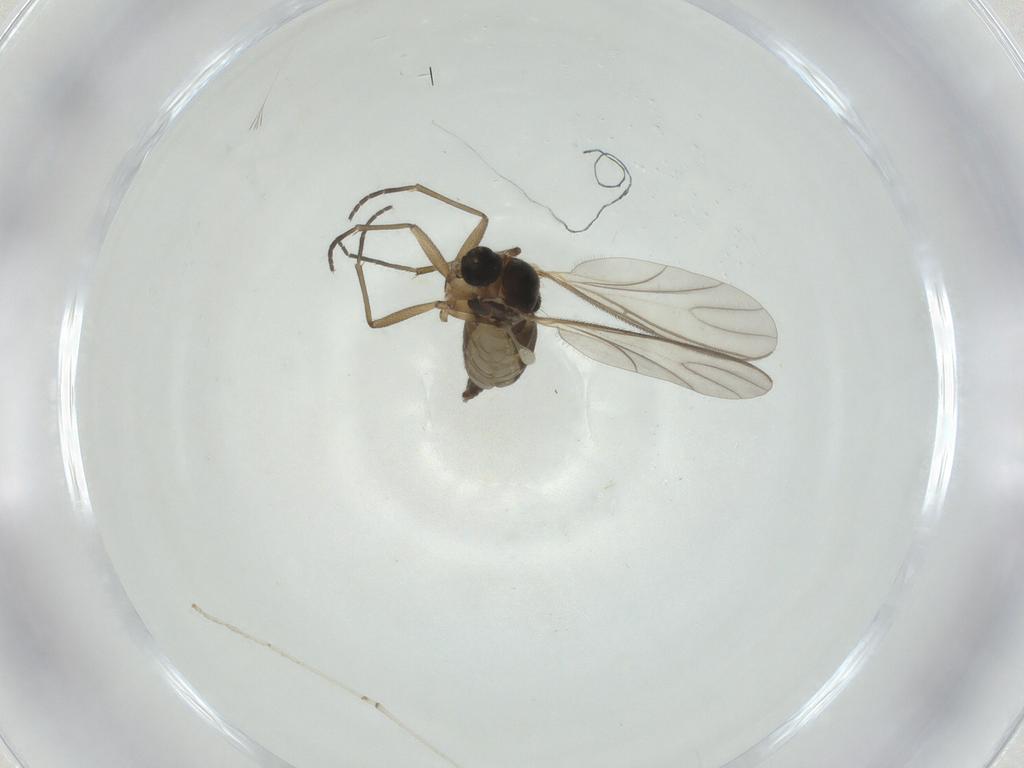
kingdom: Animalia
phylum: Arthropoda
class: Insecta
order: Diptera
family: Cecidomyiidae
